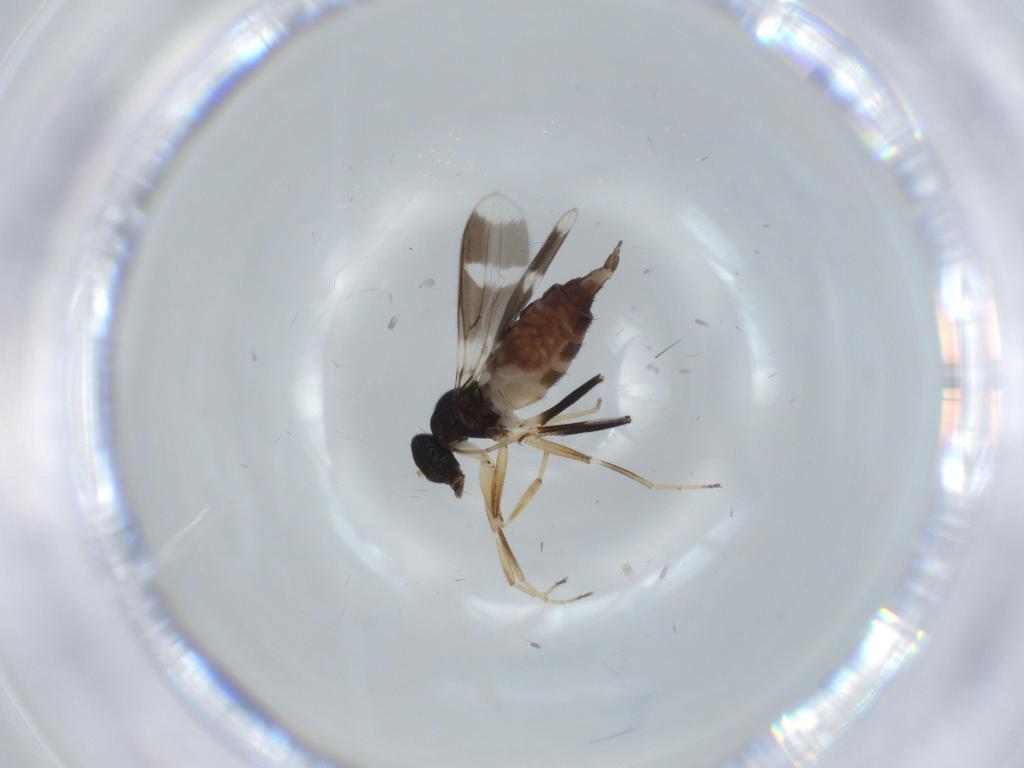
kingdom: Animalia
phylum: Arthropoda
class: Insecta
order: Diptera
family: Hybotidae
